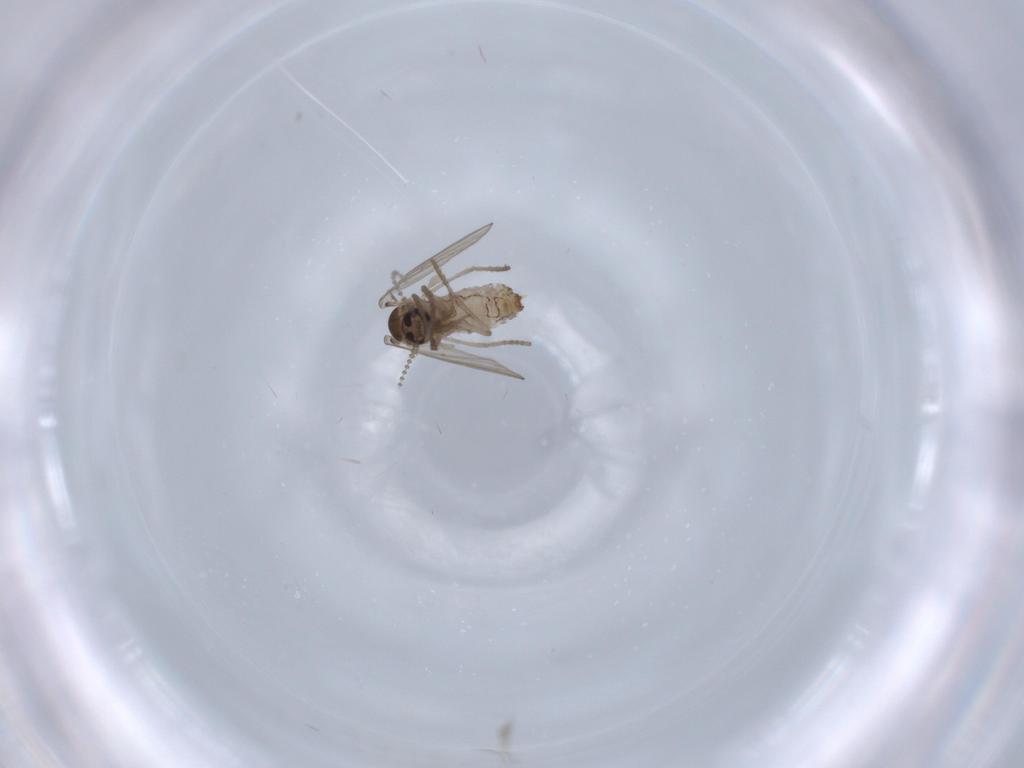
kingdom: Animalia
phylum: Arthropoda
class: Insecta
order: Diptera
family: Psychodidae
